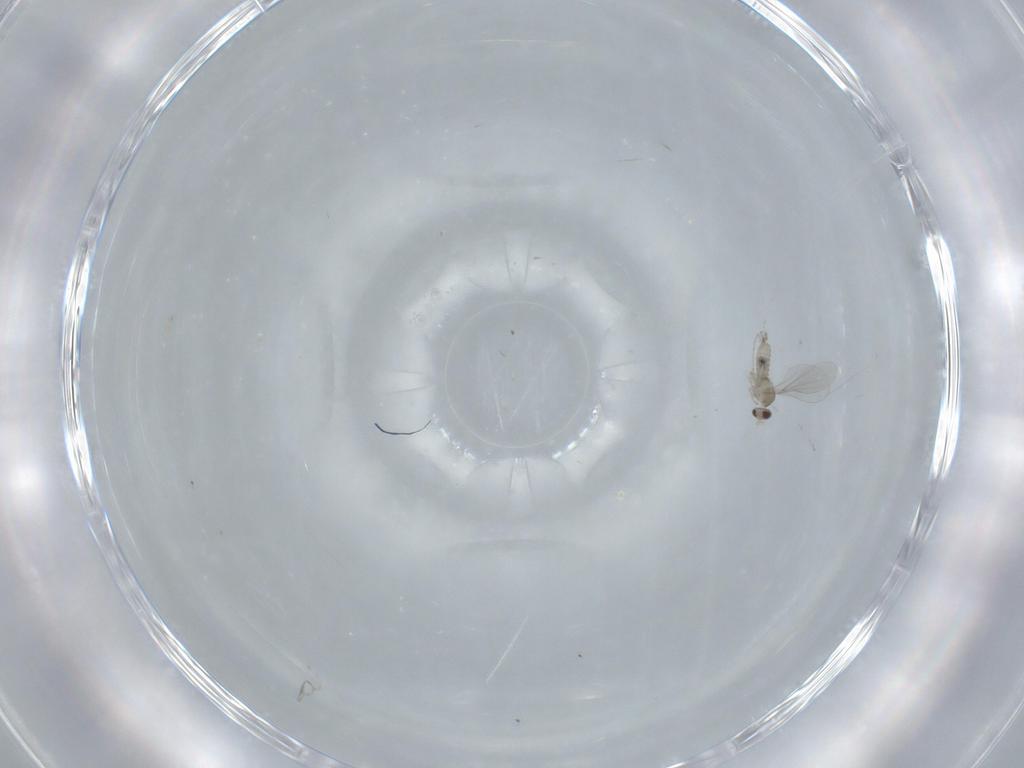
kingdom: Animalia
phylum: Arthropoda
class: Insecta
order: Diptera
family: Cecidomyiidae
